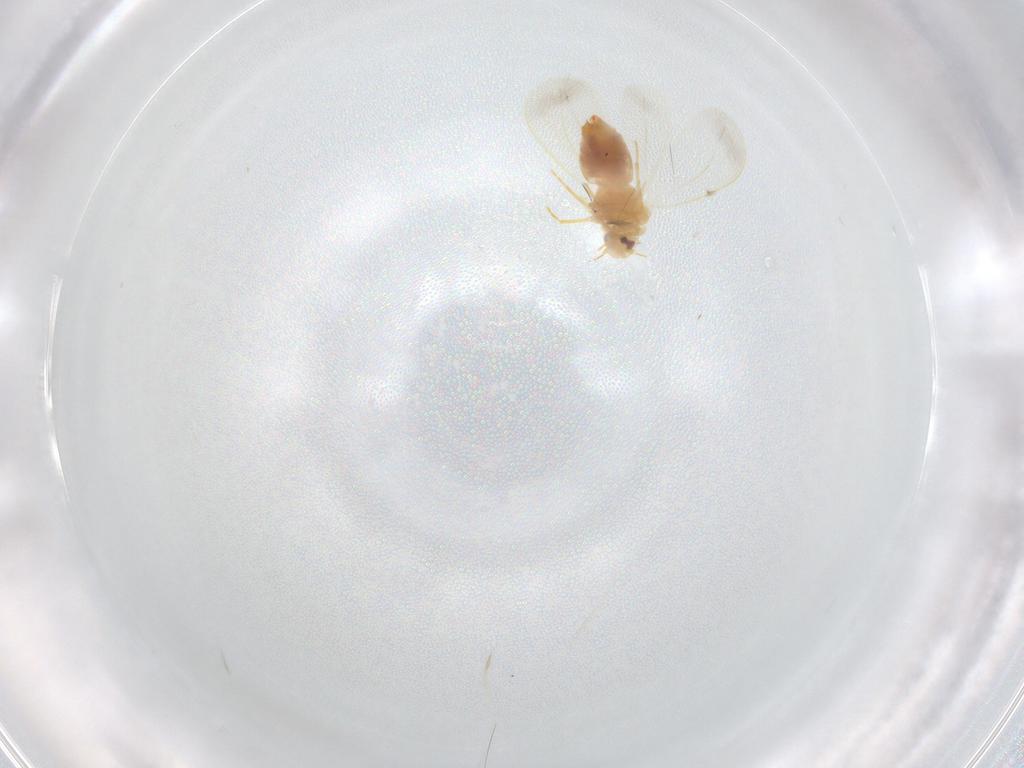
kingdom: Animalia
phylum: Arthropoda
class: Insecta
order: Hemiptera
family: Aleyrodidae
